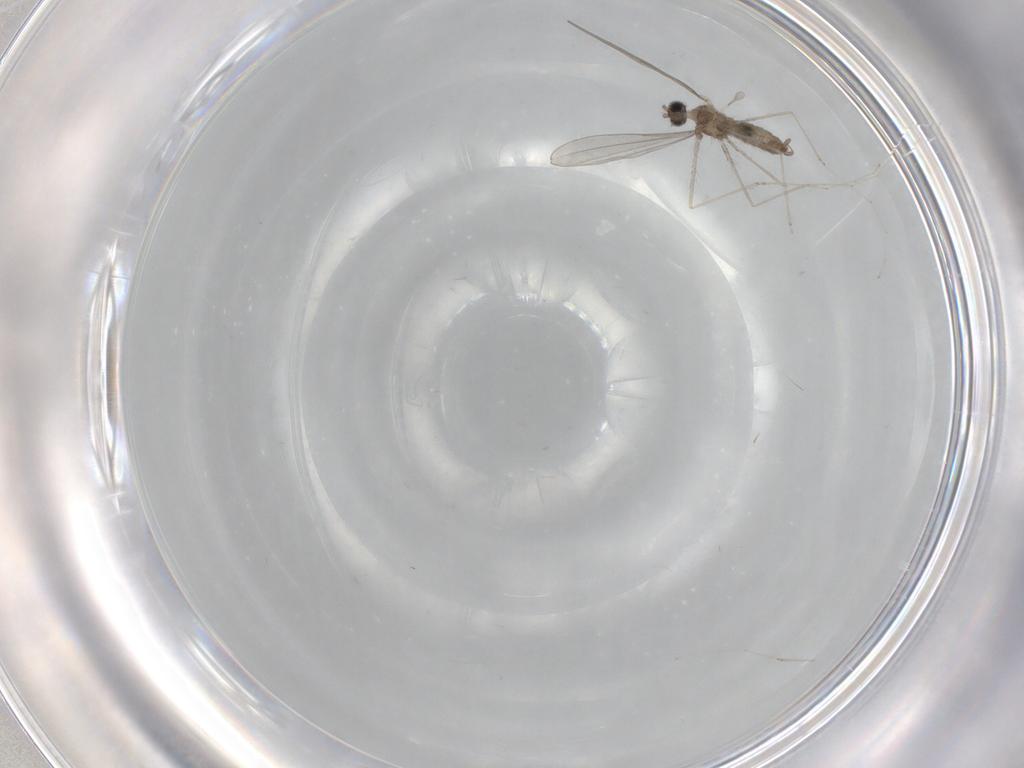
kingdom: Animalia
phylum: Arthropoda
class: Insecta
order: Diptera
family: Cecidomyiidae
